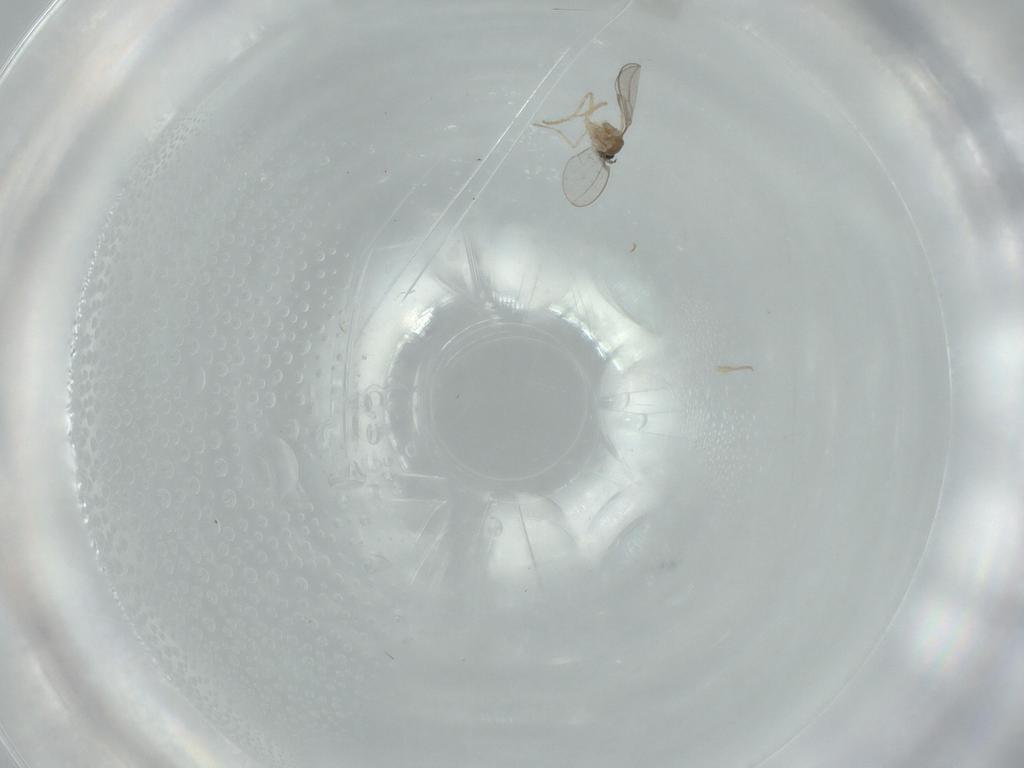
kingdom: Animalia
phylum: Arthropoda
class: Insecta
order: Diptera
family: Cecidomyiidae
